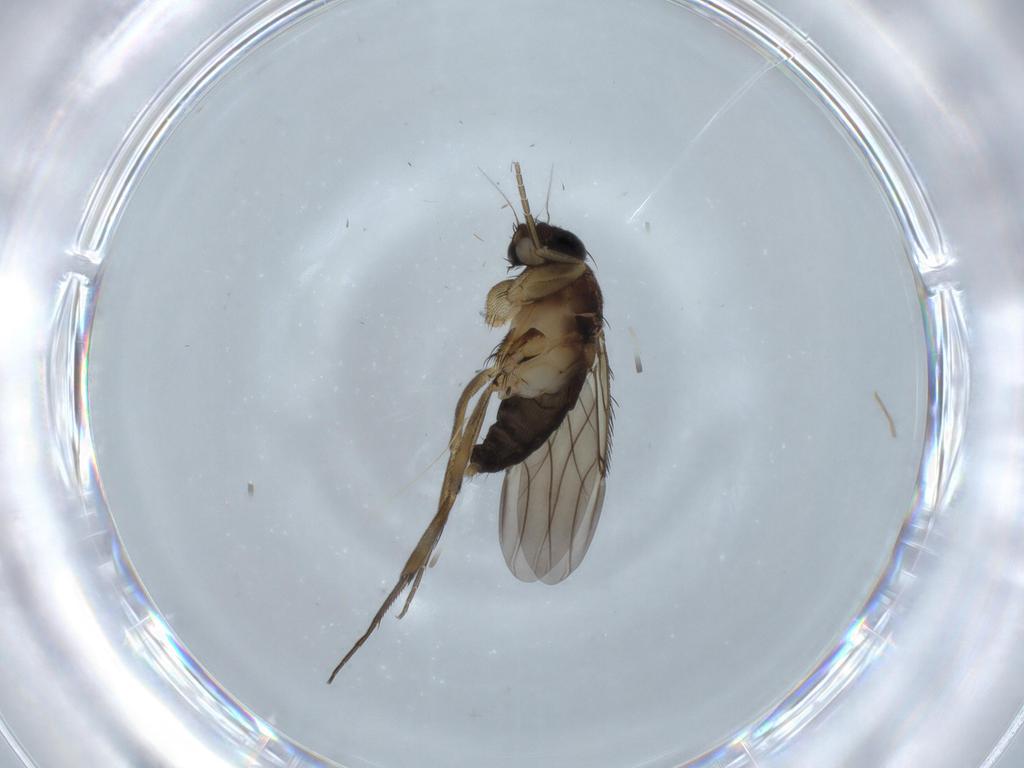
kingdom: Animalia
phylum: Arthropoda
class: Insecta
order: Diptera
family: Phoridae
